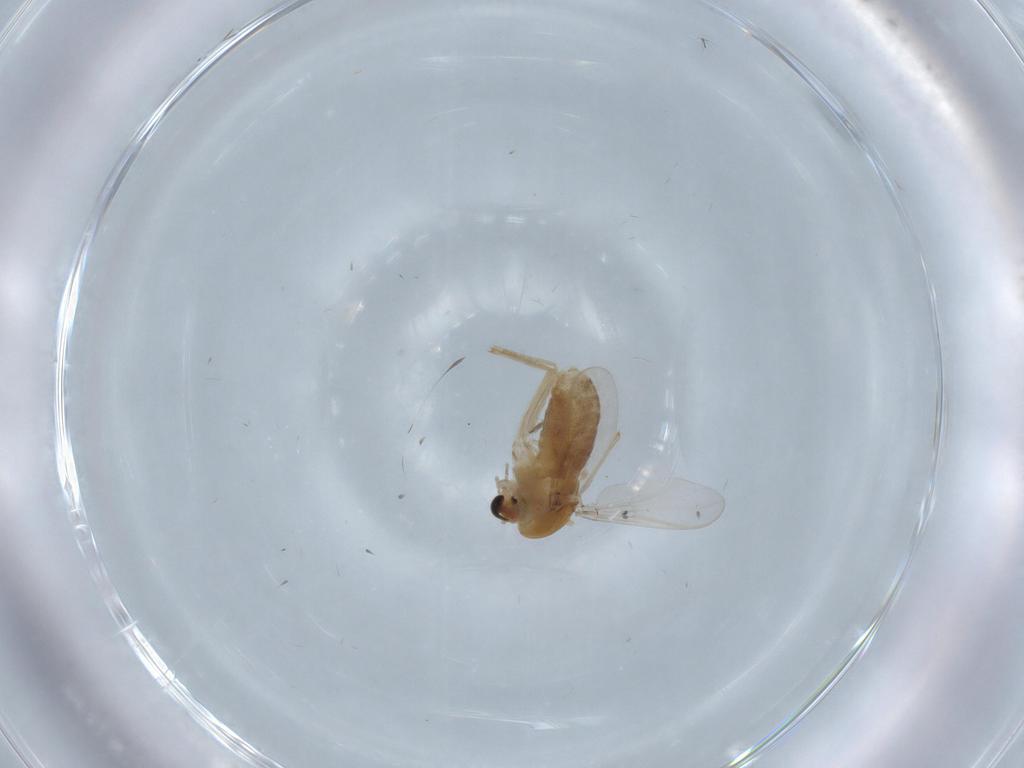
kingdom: Animalia
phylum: Arthropoda
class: Insecta
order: Diptera
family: Chironomidae
